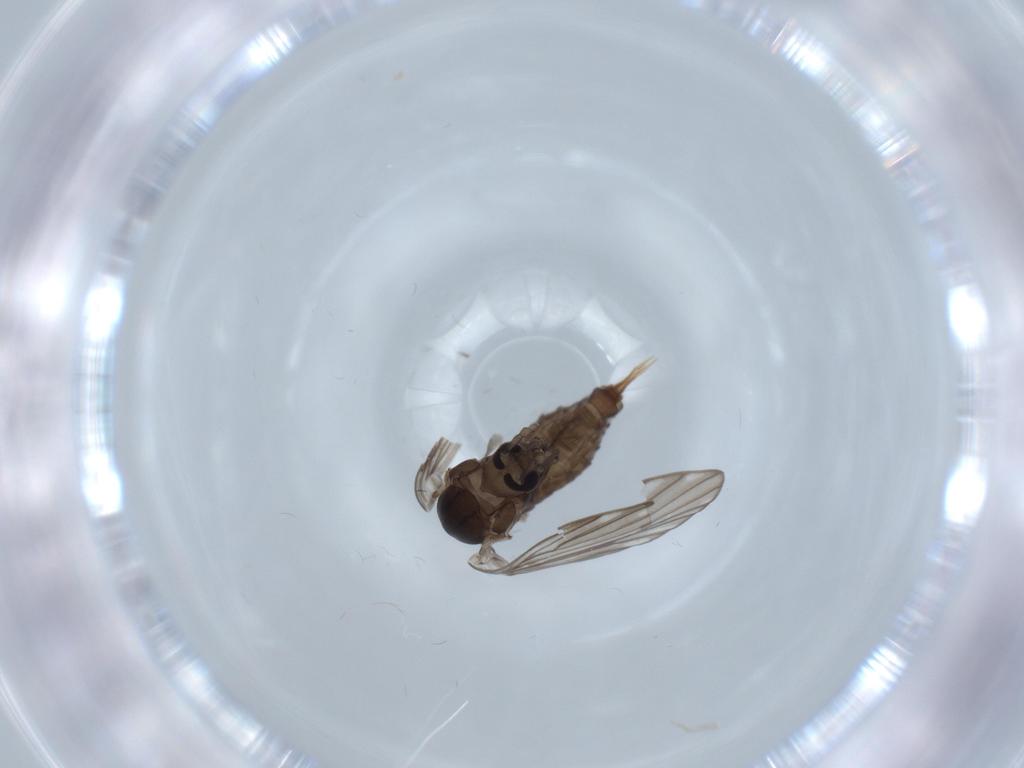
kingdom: Animalia
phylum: Arthropoda
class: Insecta
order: Diptera
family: Psychodidae
